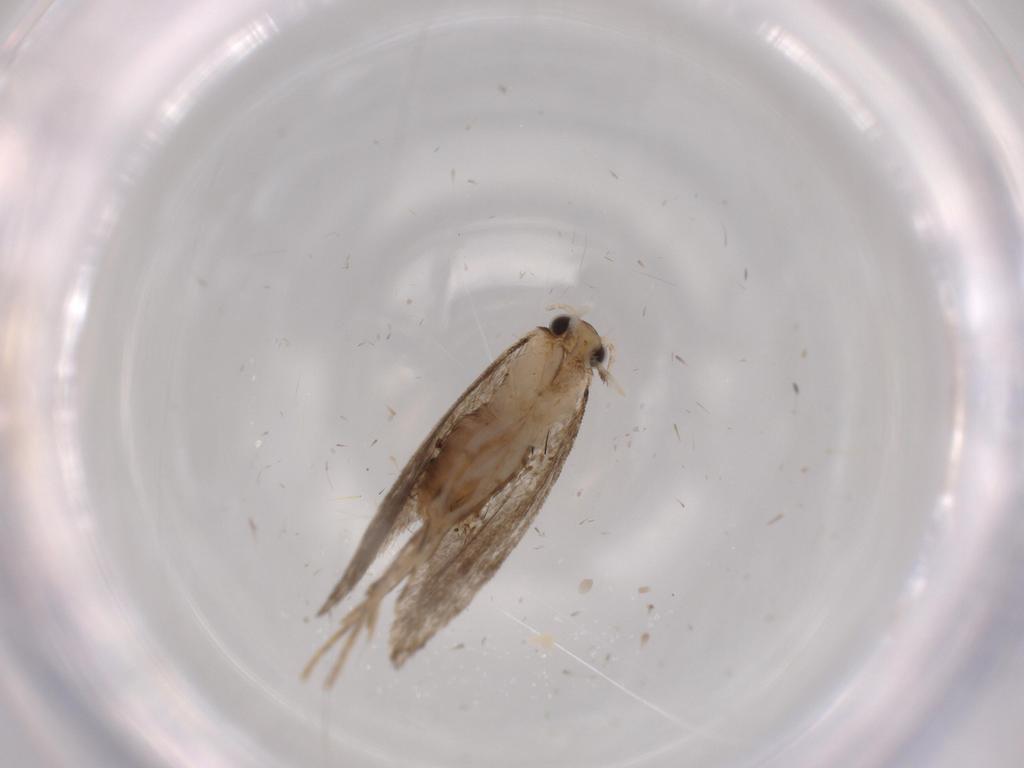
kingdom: Animalia
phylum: Arthropoda
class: Insecta
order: Lepidoptera
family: Tineidae
